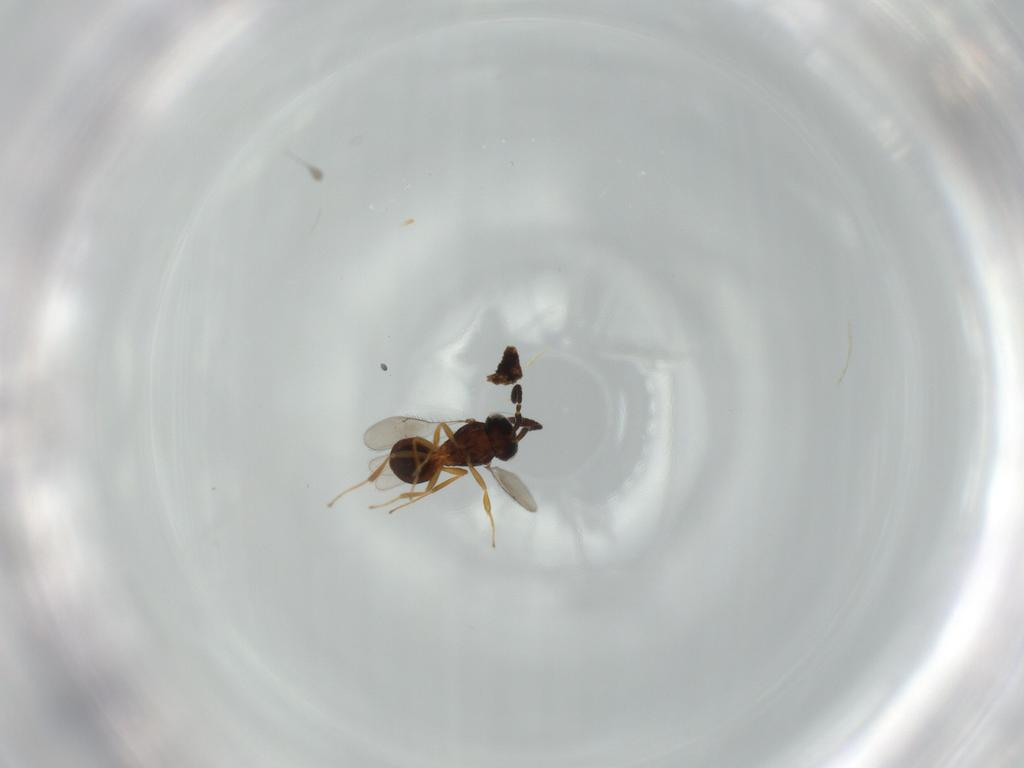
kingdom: Animalia
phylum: Arthropoda
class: Insecta
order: Hymenoptera
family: Scelionidae
